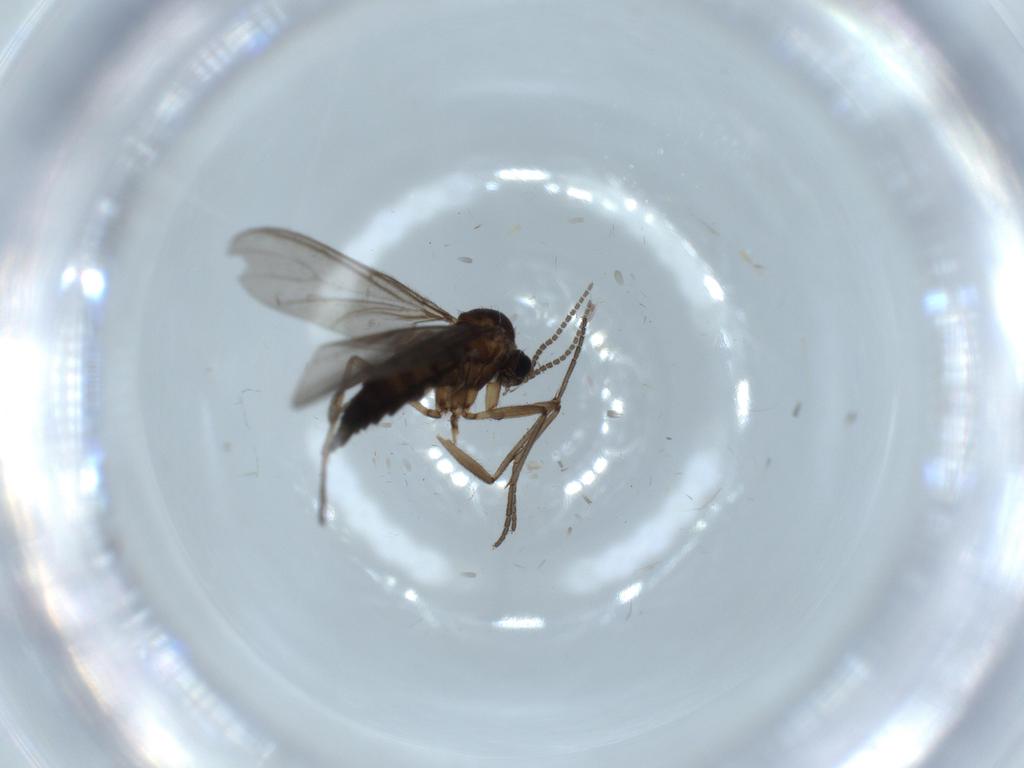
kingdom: Animalia
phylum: Arthropoda
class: Insecta
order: Diptera
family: Sciaridae
